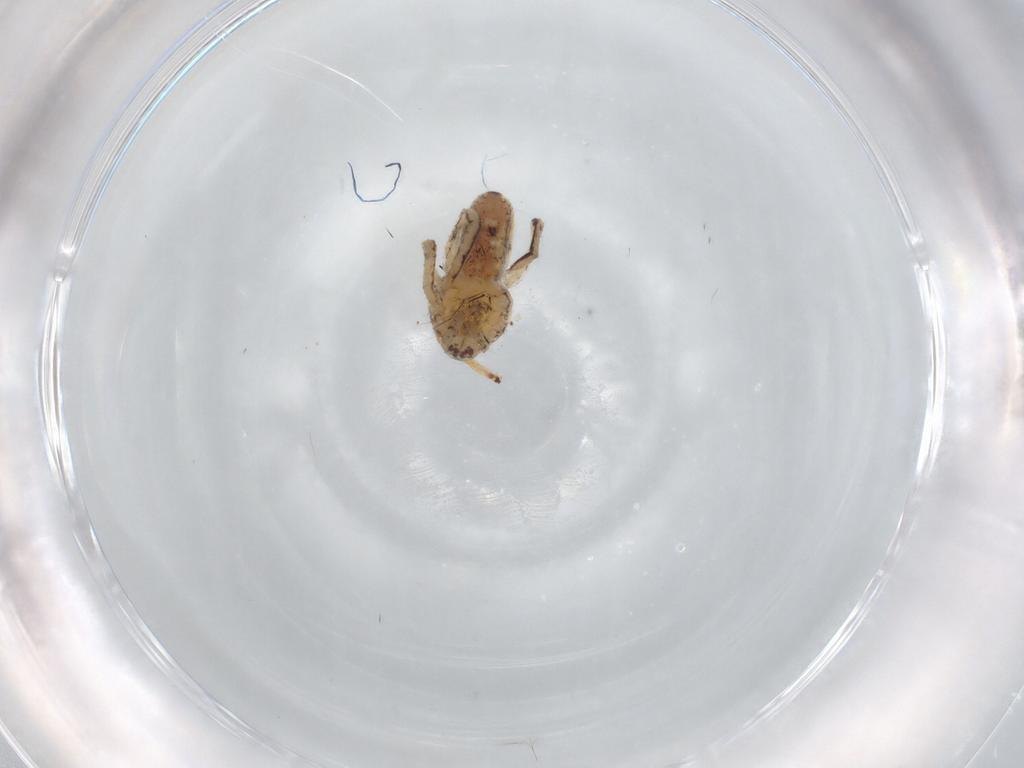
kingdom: Animalia
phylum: Arthropoda
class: Arachnida
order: Araneae
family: Philodromidae
